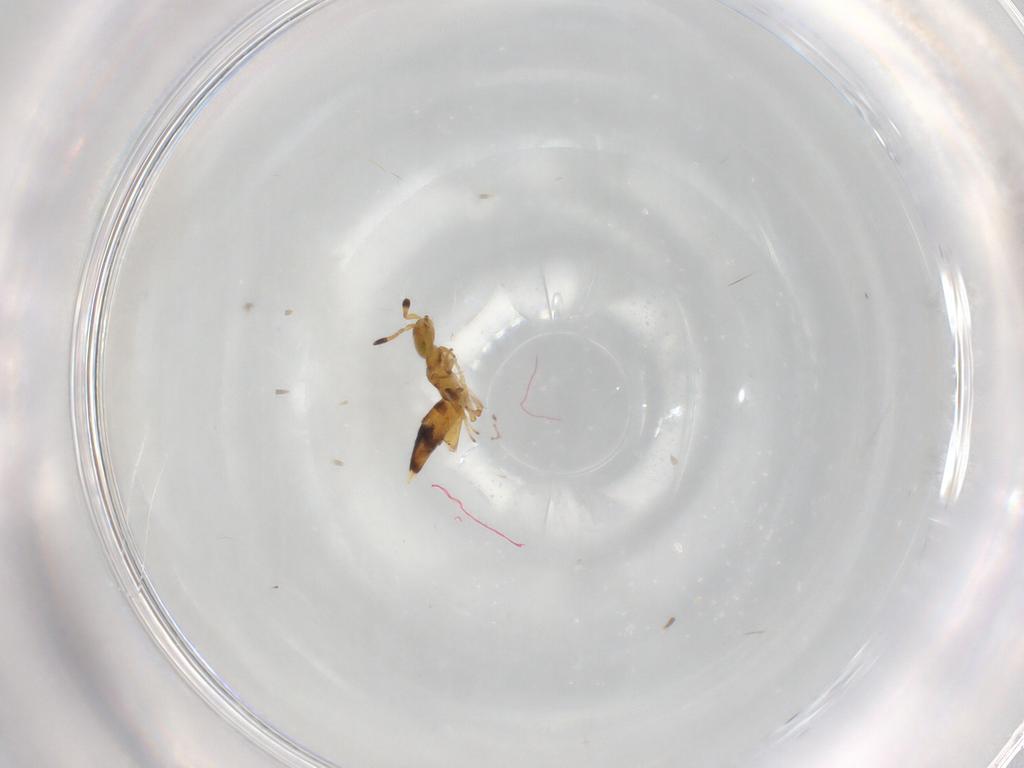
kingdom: Animalia
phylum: Arthropoda
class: Insecta
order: Hymenoptera
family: Encyrtidae
